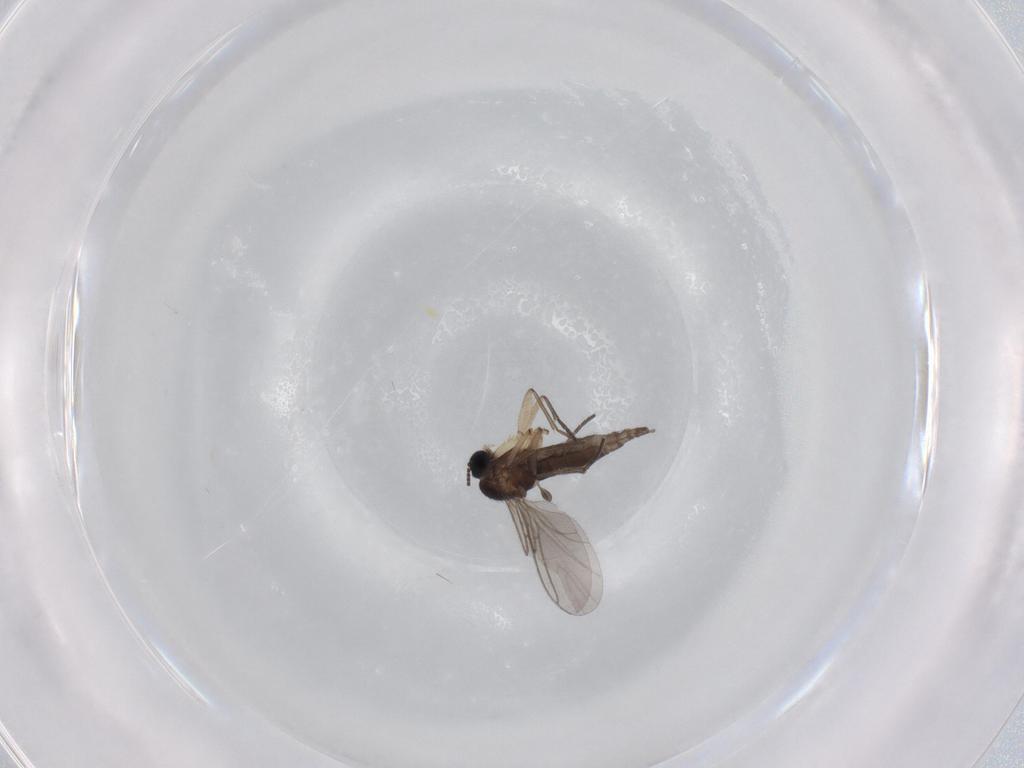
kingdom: Animalia
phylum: Arthropoda
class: Insecta
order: Diptera
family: Sciaridae
